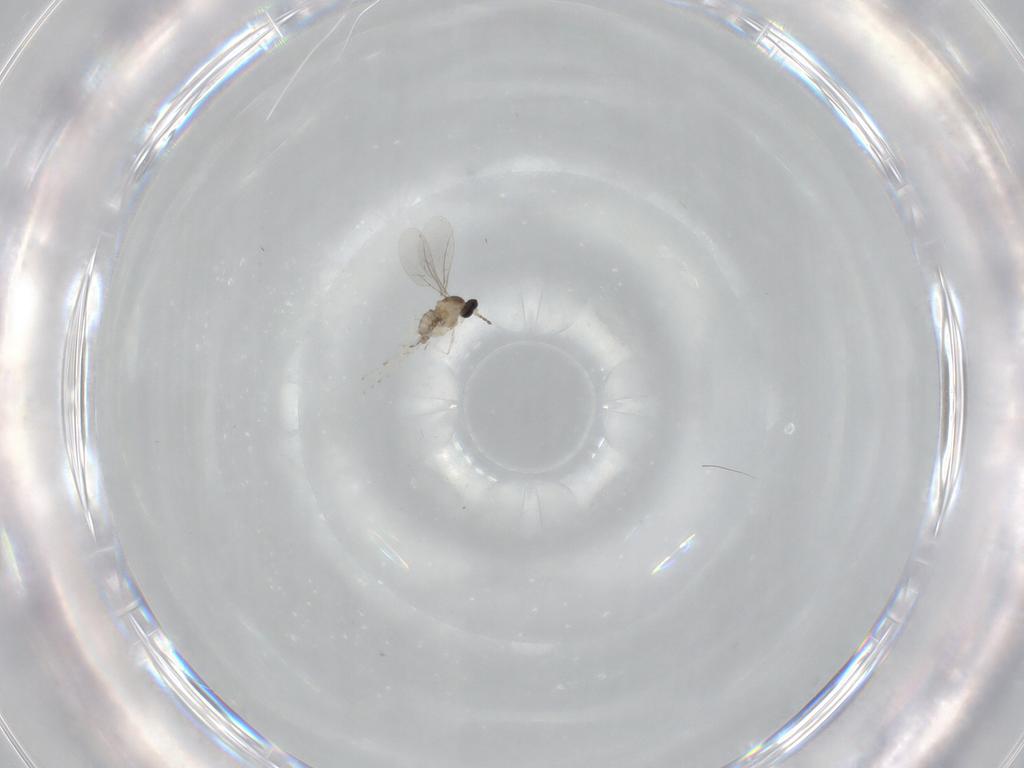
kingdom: Animalia
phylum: Arthropoda
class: Insecta
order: Diptera
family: Cecidomyiidae
